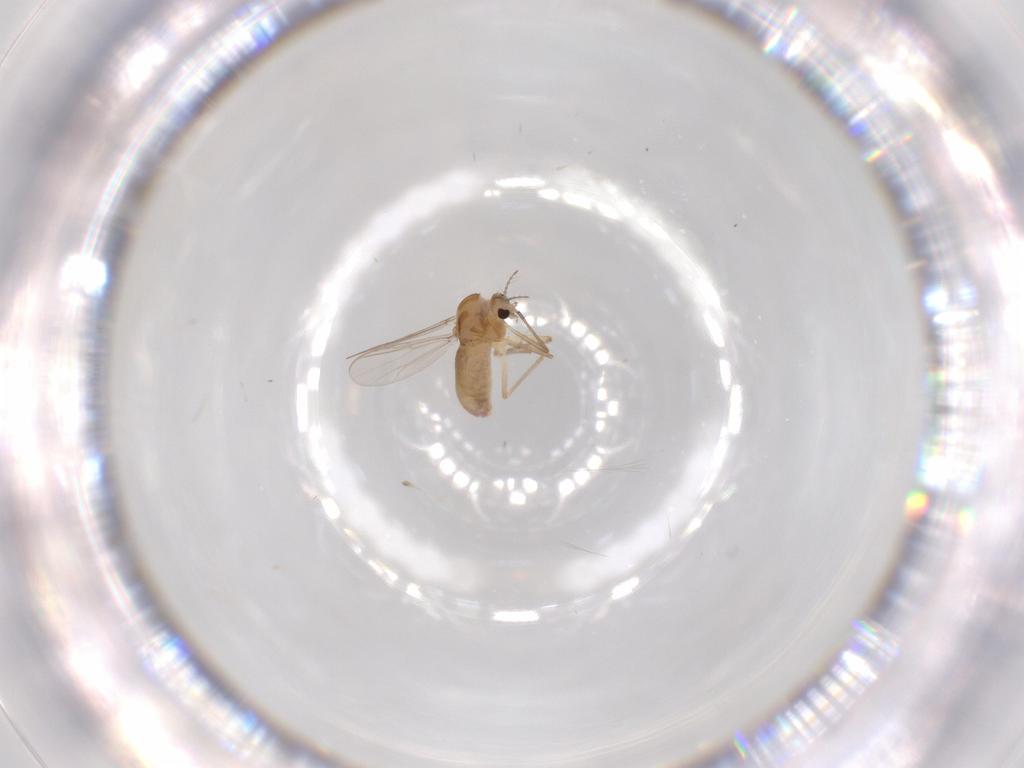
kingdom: Animalia
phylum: Arthropoda
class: Insecta
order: Diptera
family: Chironomidae
